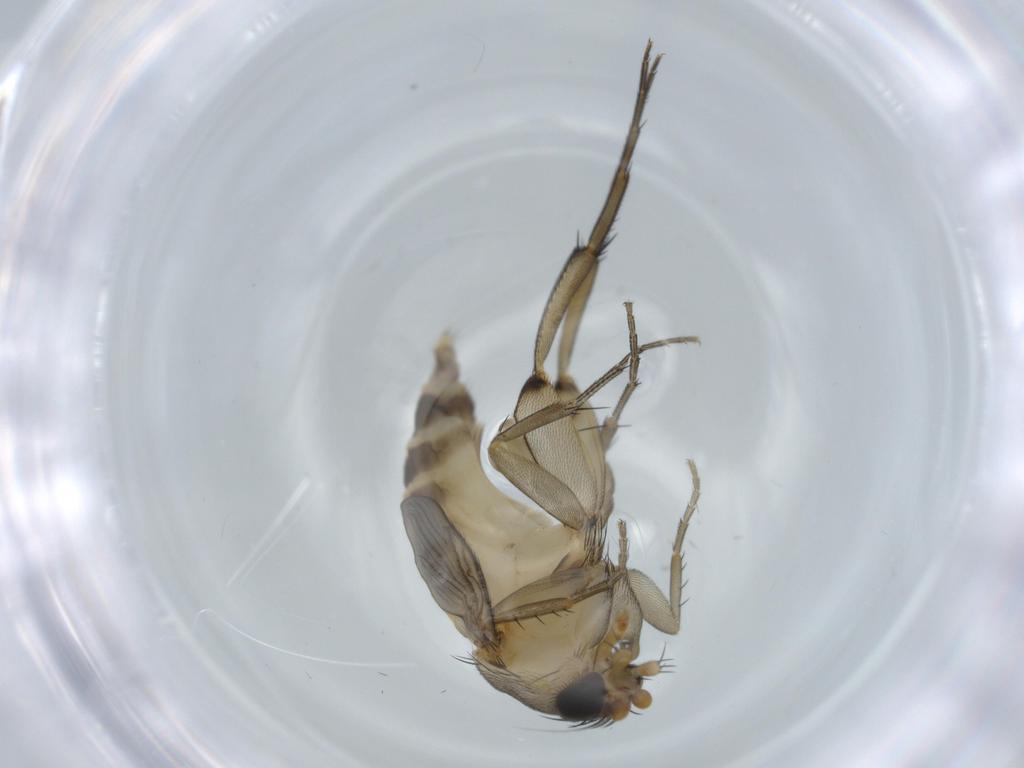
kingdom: Animalia
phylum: Arthropoda
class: Insecta
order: Diptera
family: Phoridae
